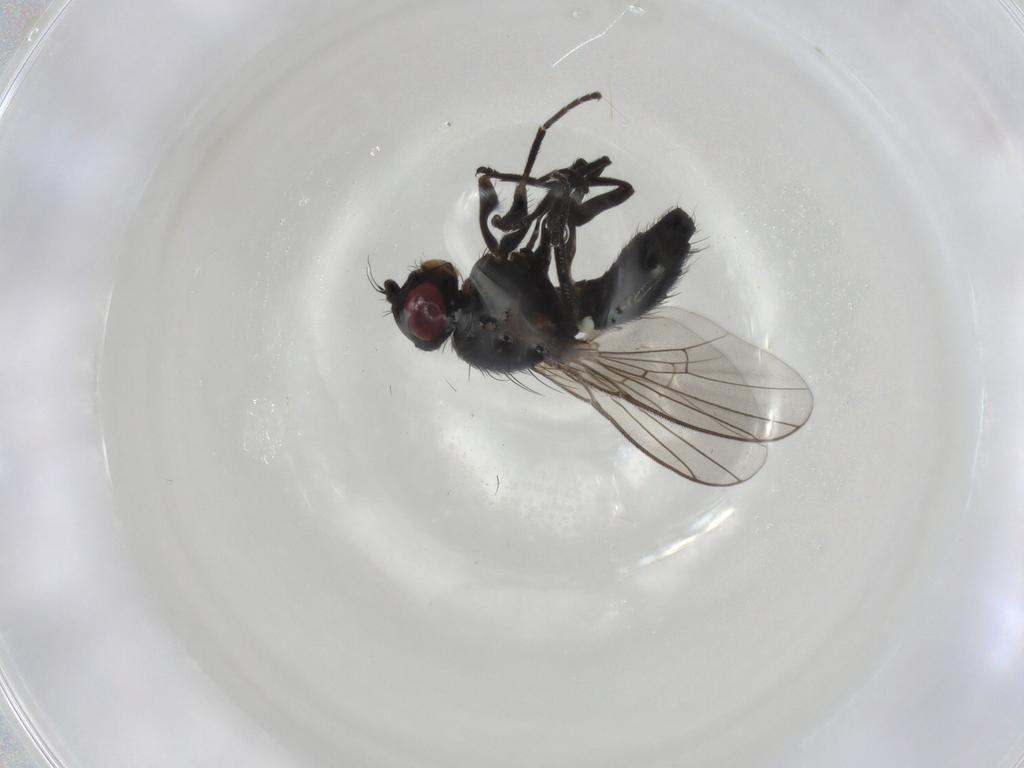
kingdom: Animalia
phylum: Arthropoda
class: Insecta
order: Diptera
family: Agromyzidae
